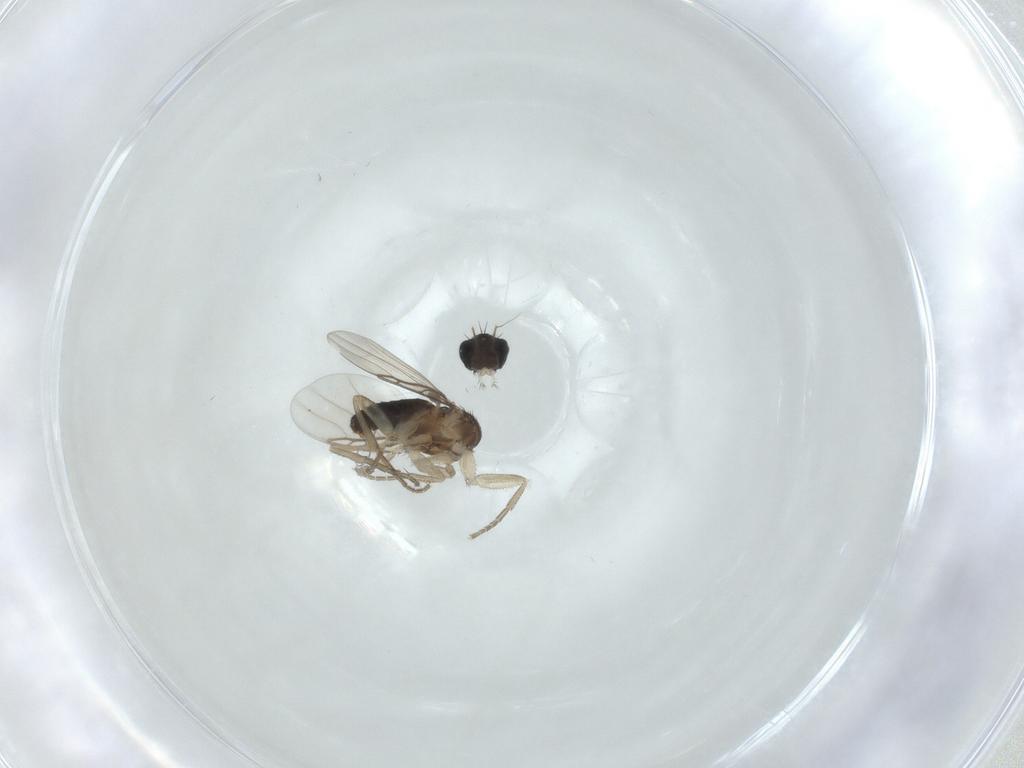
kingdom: Animalia
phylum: Arthropoda
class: Insecta
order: Diptera
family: Phoridae
